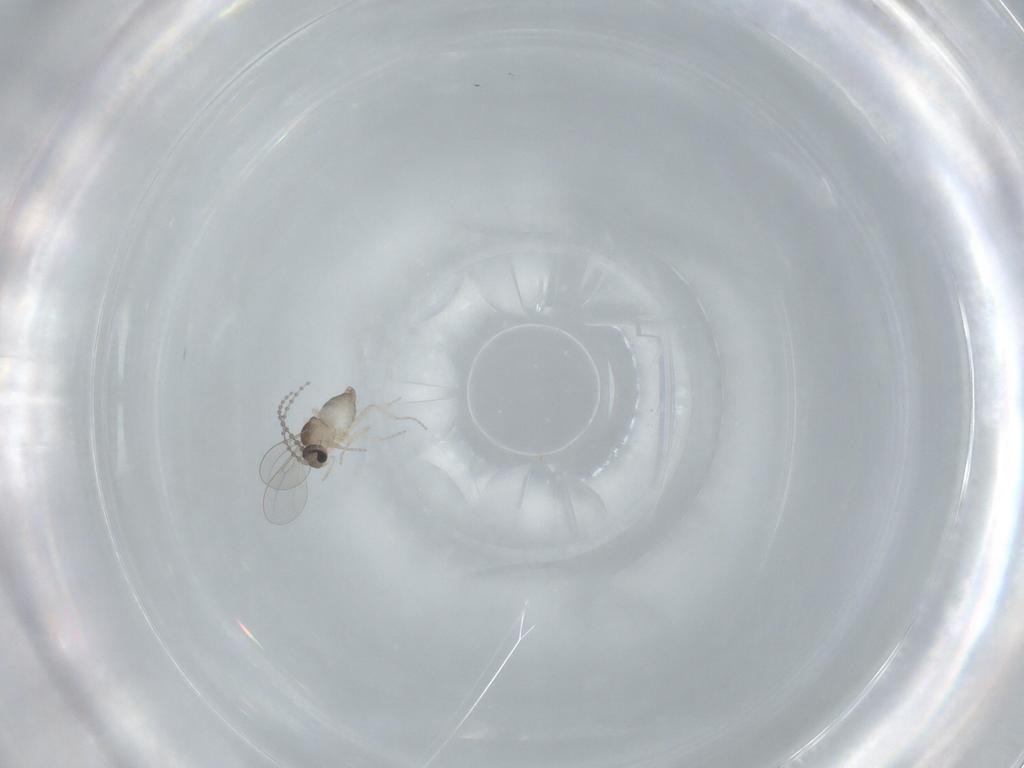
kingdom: Animalia
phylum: Arthropoda
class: Insecta
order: Diptera
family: Cecidomyiidae
